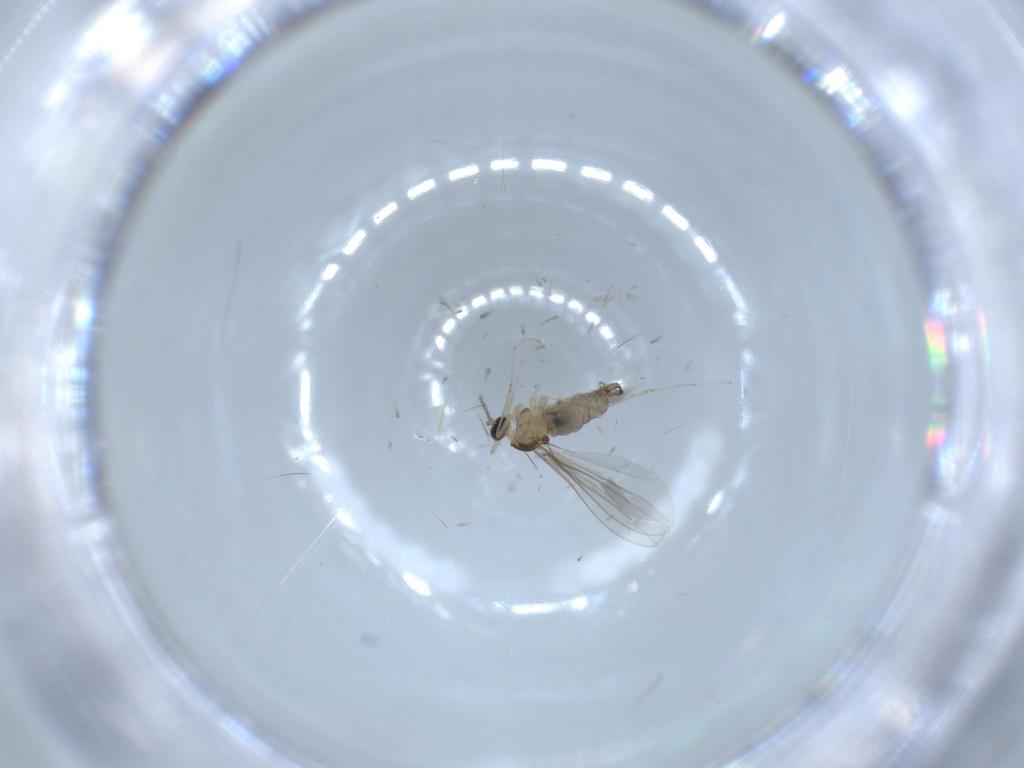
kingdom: Animalia
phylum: Arthropoda
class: Insecta
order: Diptera
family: Cecidomyiidae
